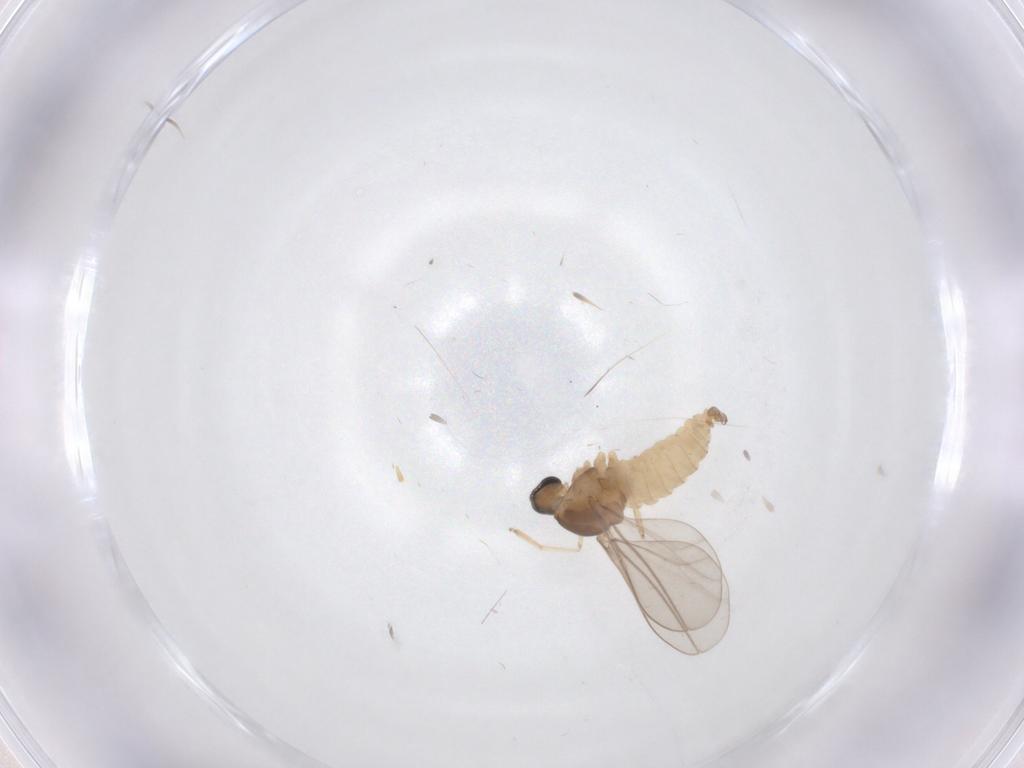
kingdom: Animalia
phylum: Arthropoda
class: Insecta
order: Diptera
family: Cecidomyiidae
